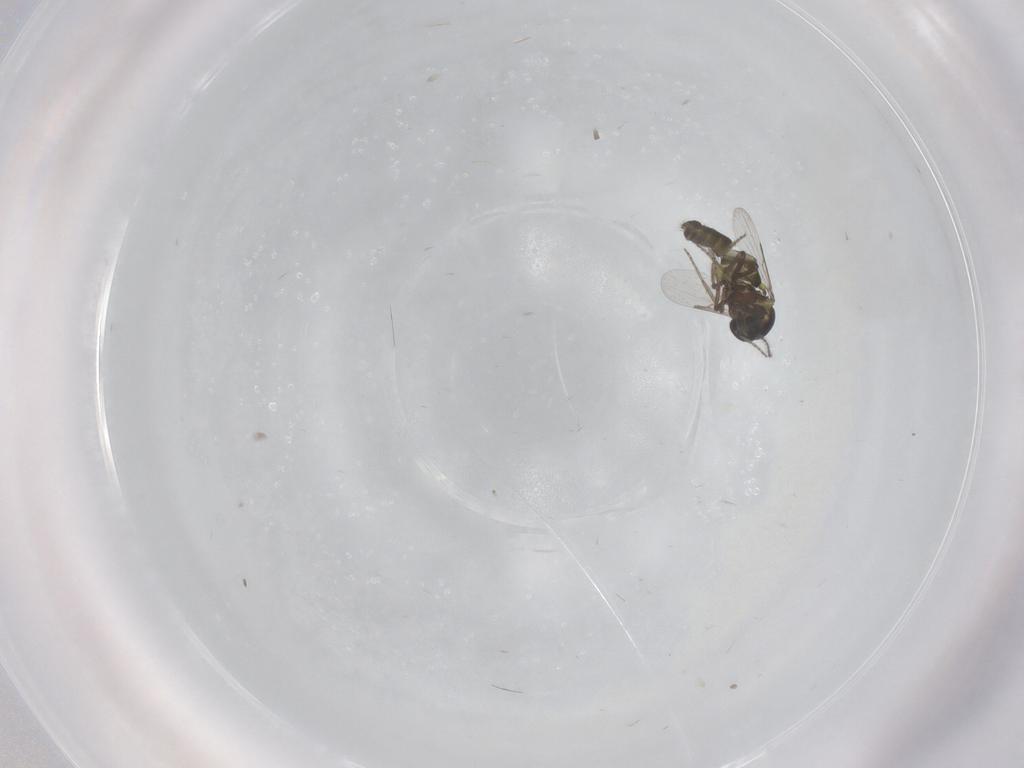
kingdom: Animalia
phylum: Arthropoda
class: Insecta
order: Diptera
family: Ceratopogonidae
